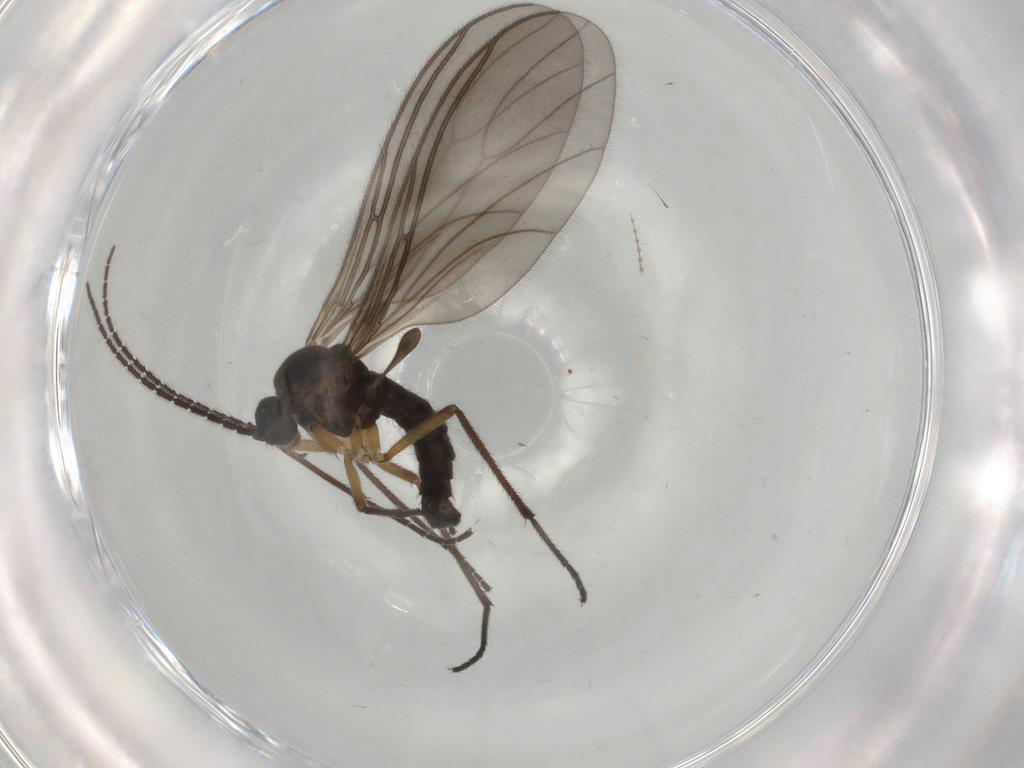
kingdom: Animalia
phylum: Arthropoda
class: Insecta
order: Diptera
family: Sciaridae
